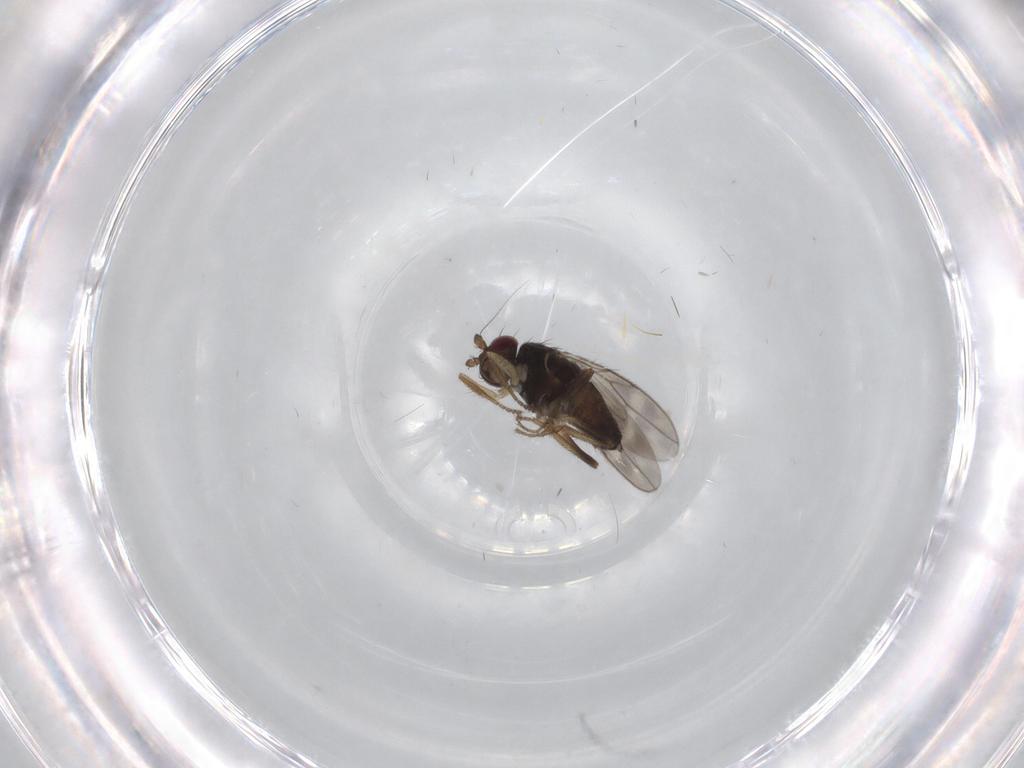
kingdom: Animalia
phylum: Arthropoda
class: Insecta
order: Diptera
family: Sphaeroceridae
